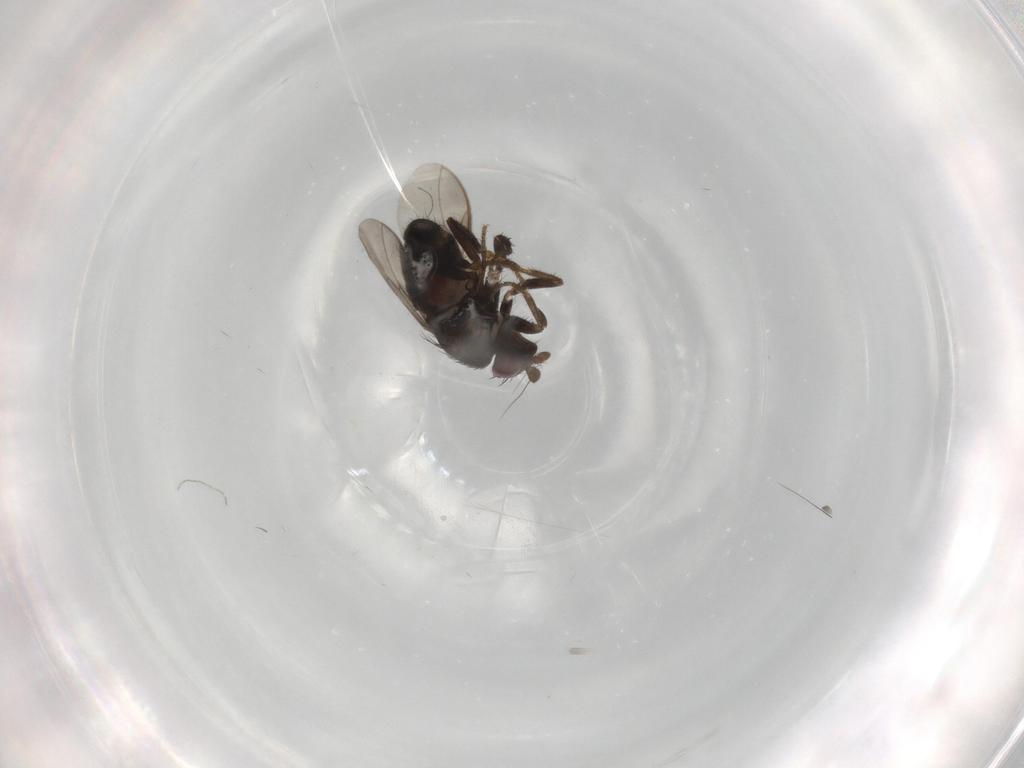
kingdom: Animalia
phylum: Arthropoda
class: Insecta
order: Diptera
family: Sphaeroceridae
